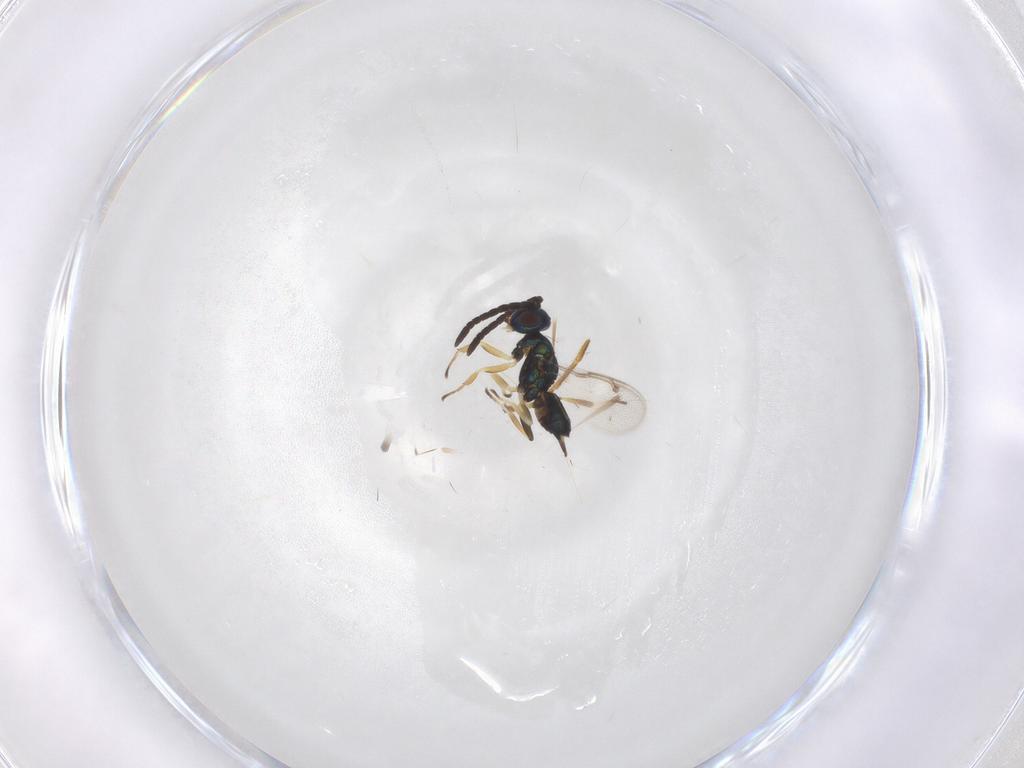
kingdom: Animalia
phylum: Arthropoda
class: Insecta
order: Hymenoptera
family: Eupelmidae
